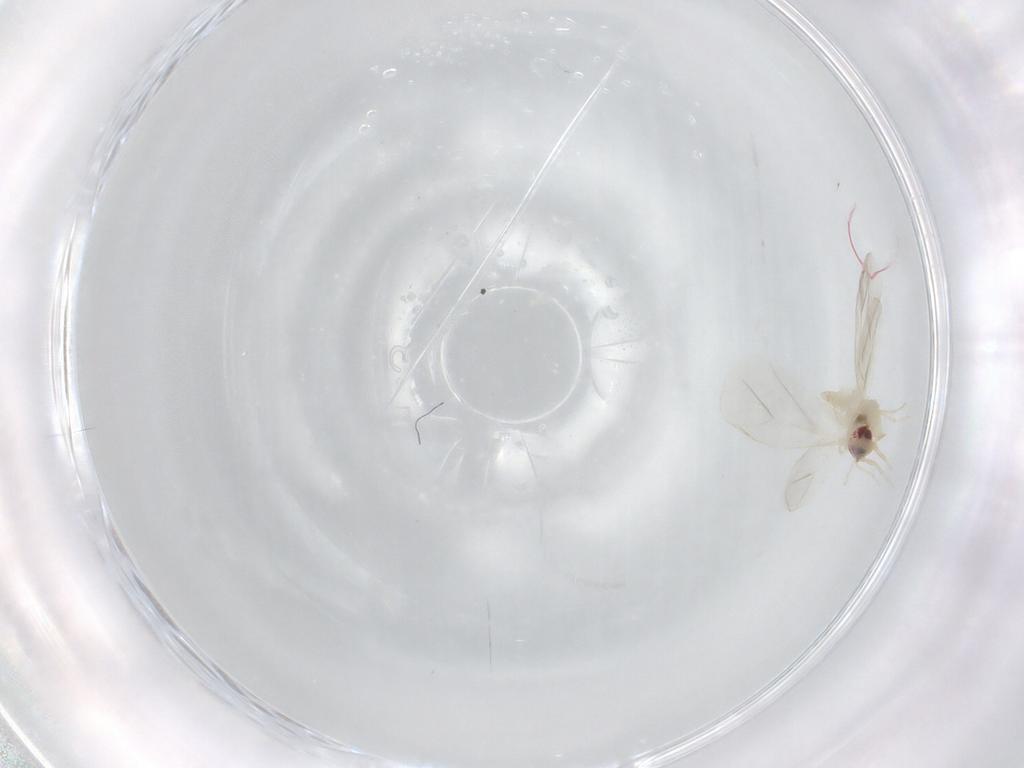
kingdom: Animalia
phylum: Arthropoda
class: Insecta
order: Hemiptera
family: Aleyrodidae
